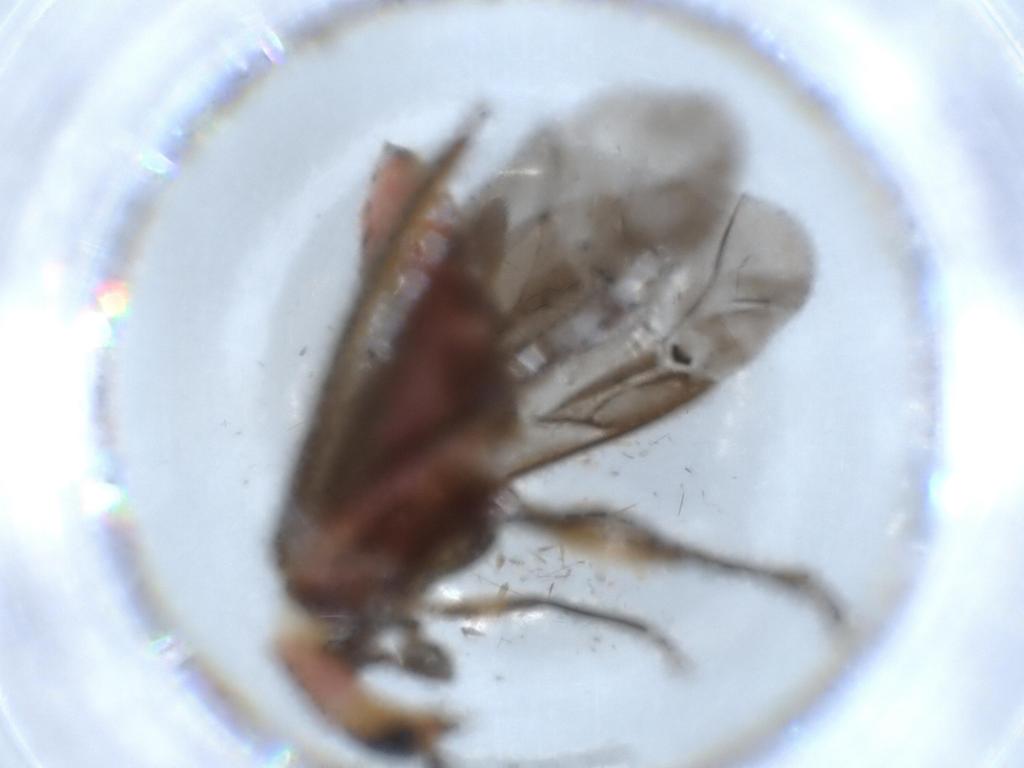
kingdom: Animalia
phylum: Arthropoda
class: Insecta
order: Coleoptera
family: Cleridae
